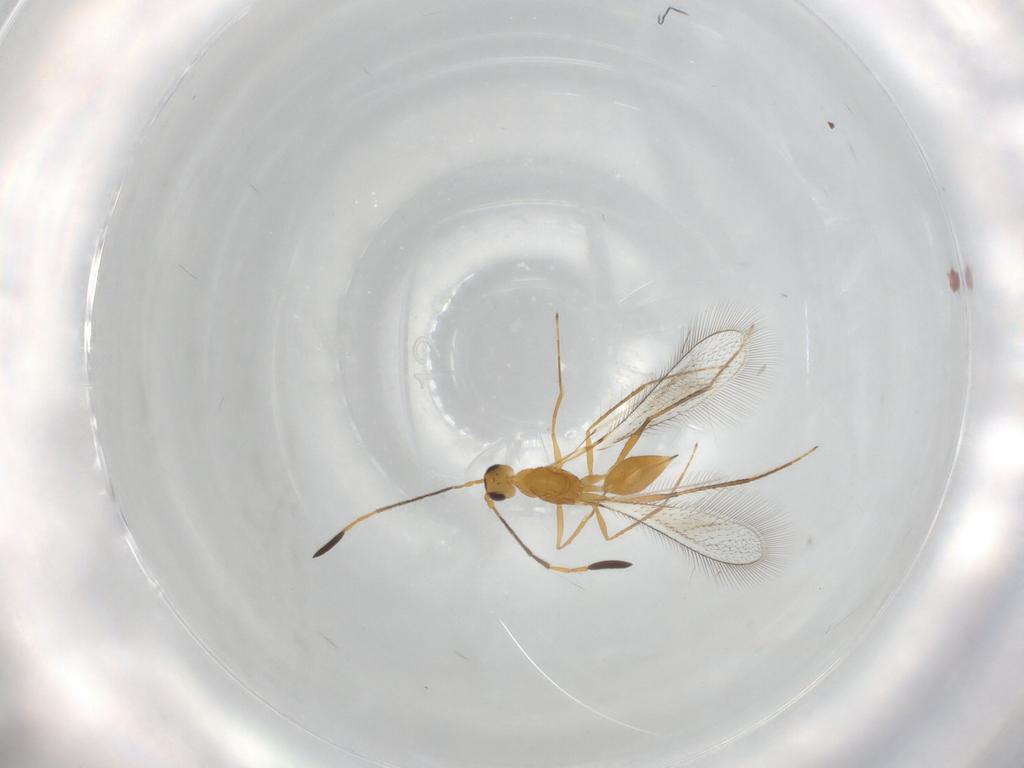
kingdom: Animalia
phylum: Arthropoda
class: Insecta
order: Hymenoptera
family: Mymaridae
